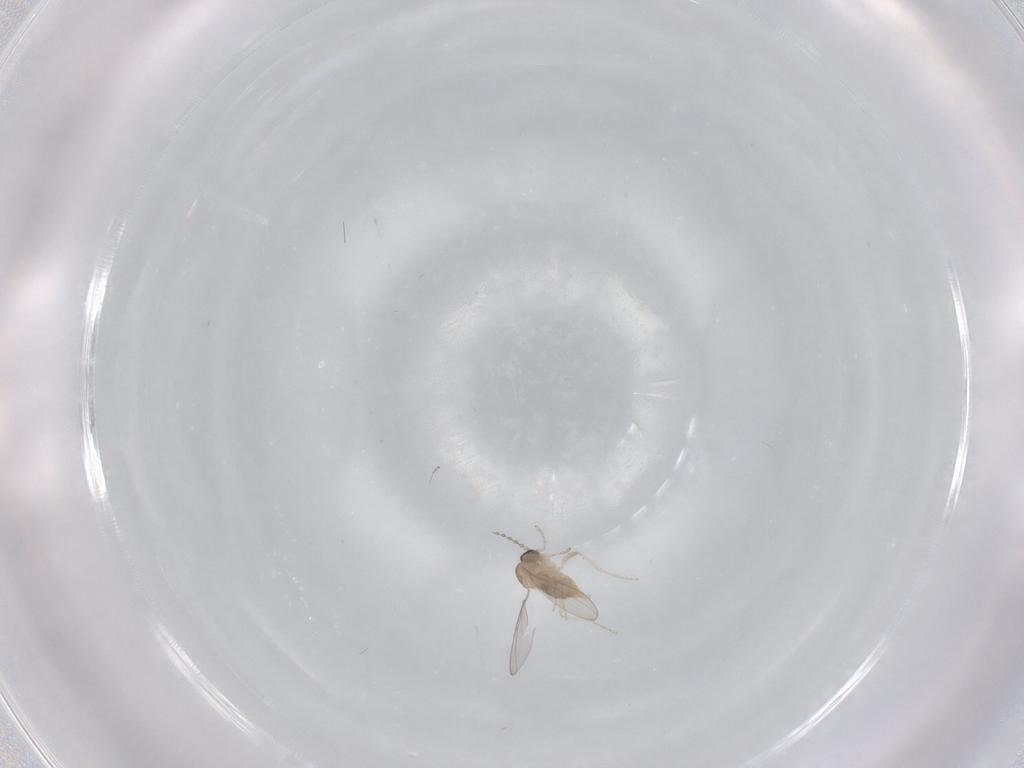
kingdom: Animalia
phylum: Arthropoda
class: Insecta
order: Diptera
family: Cecidomyiidae
